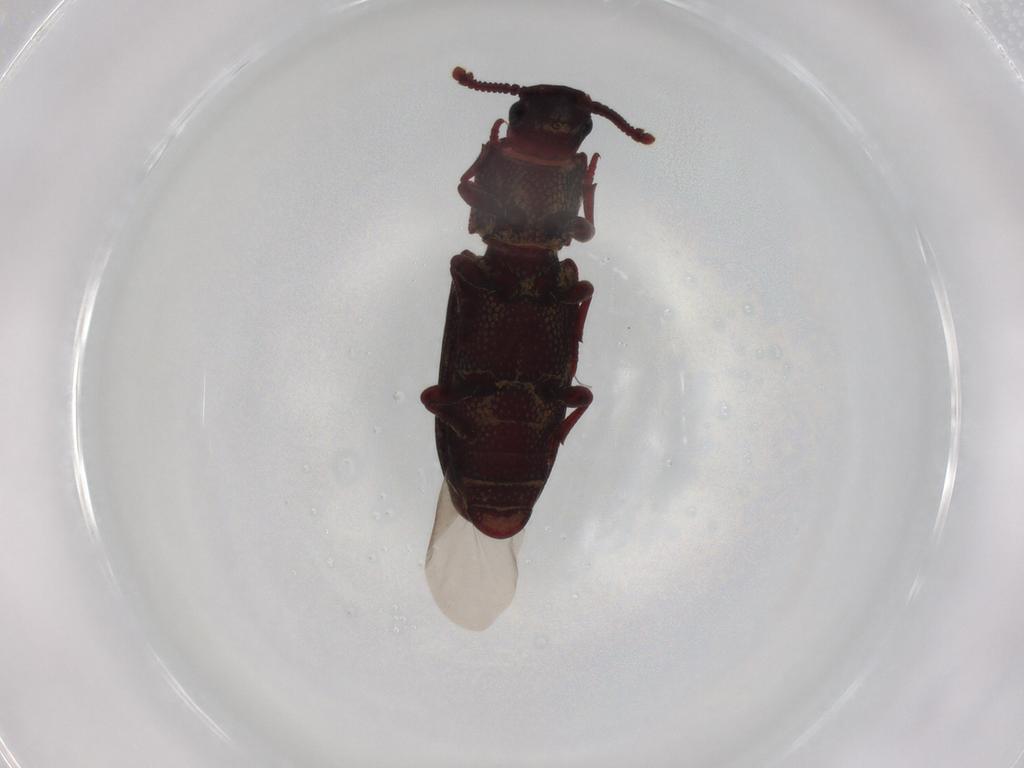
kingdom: Animalia
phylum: Arthropoda
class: Insecta
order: Coleoptera
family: Zopheridae
